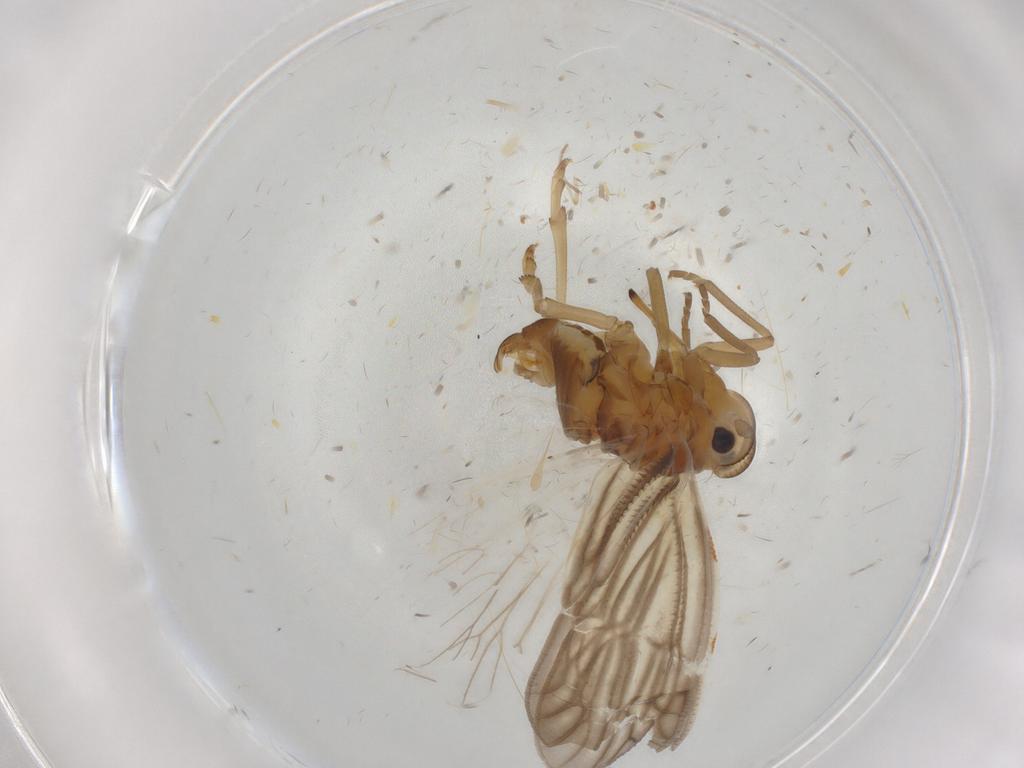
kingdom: Animalia
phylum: Arthropoda
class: Insecta
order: Hemiptera
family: Meenoplidae
